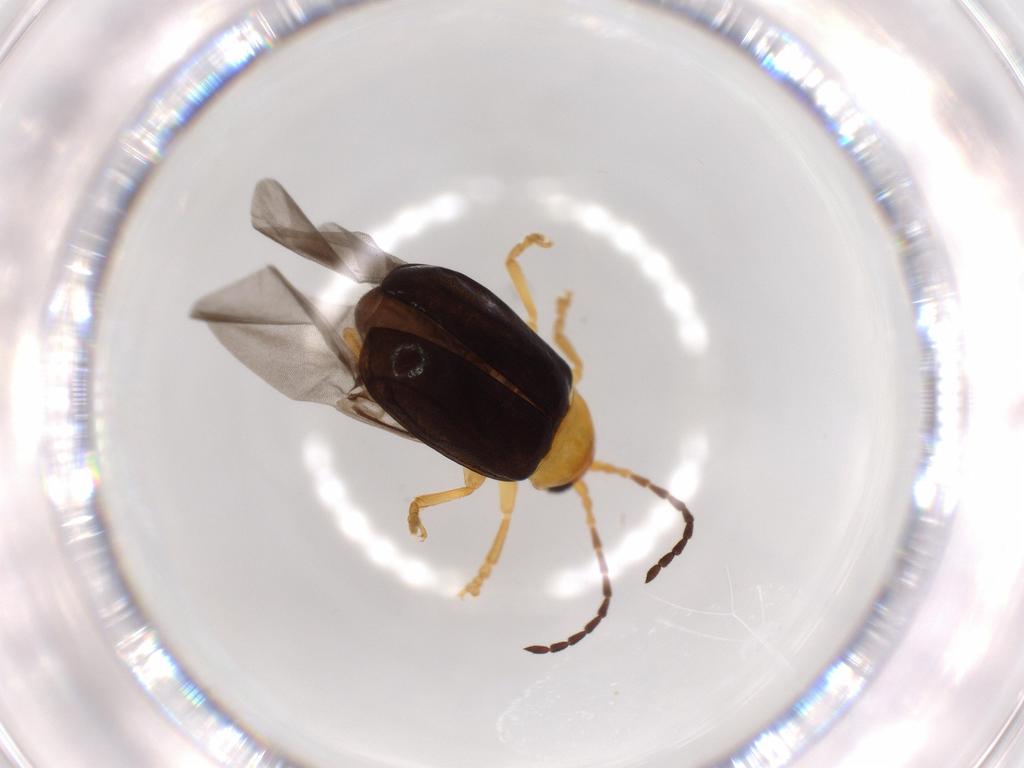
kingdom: Animalia
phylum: Arthropoda
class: Insecta
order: Coleoptera
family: Chrysomelidae
